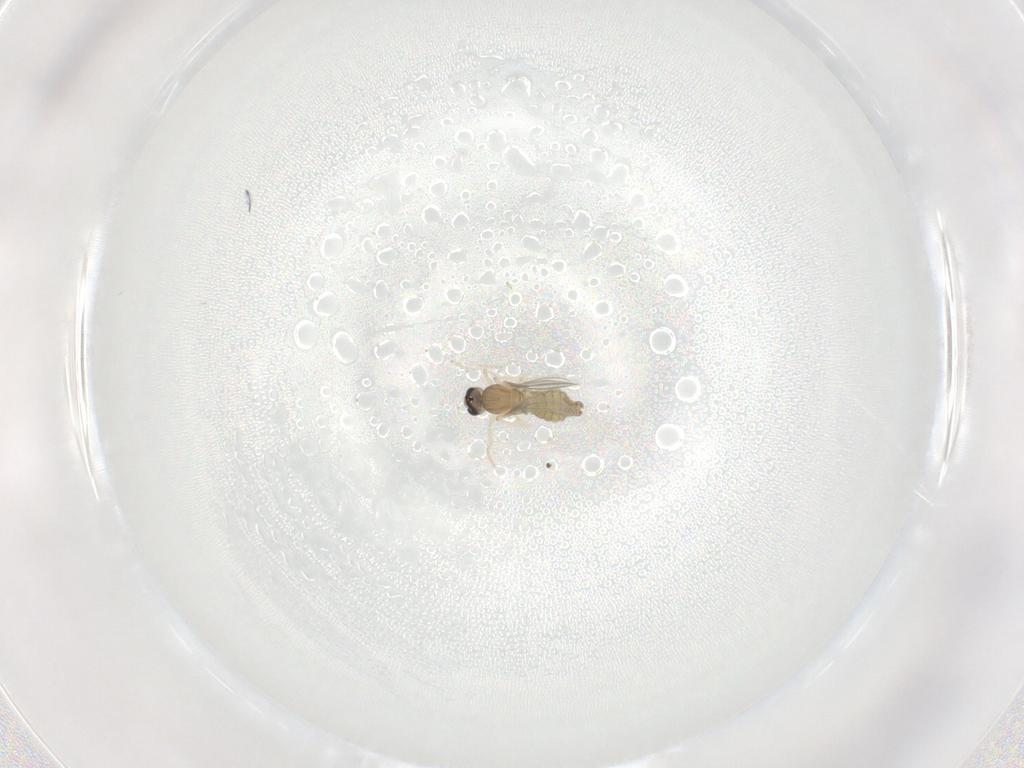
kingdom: Animalia
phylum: Arthropoda
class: Insecta
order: Diptera
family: Cecidomyiidae
